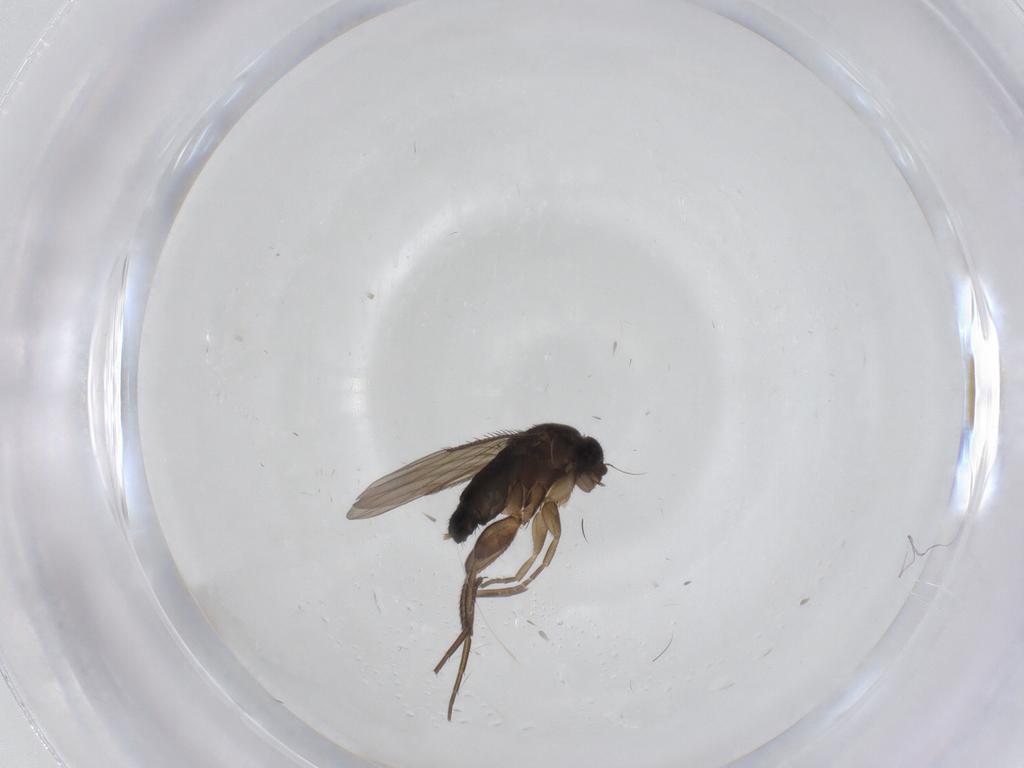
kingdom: Animalia
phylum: Arthropoda
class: Insecta
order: Diptera
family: Phoridae
